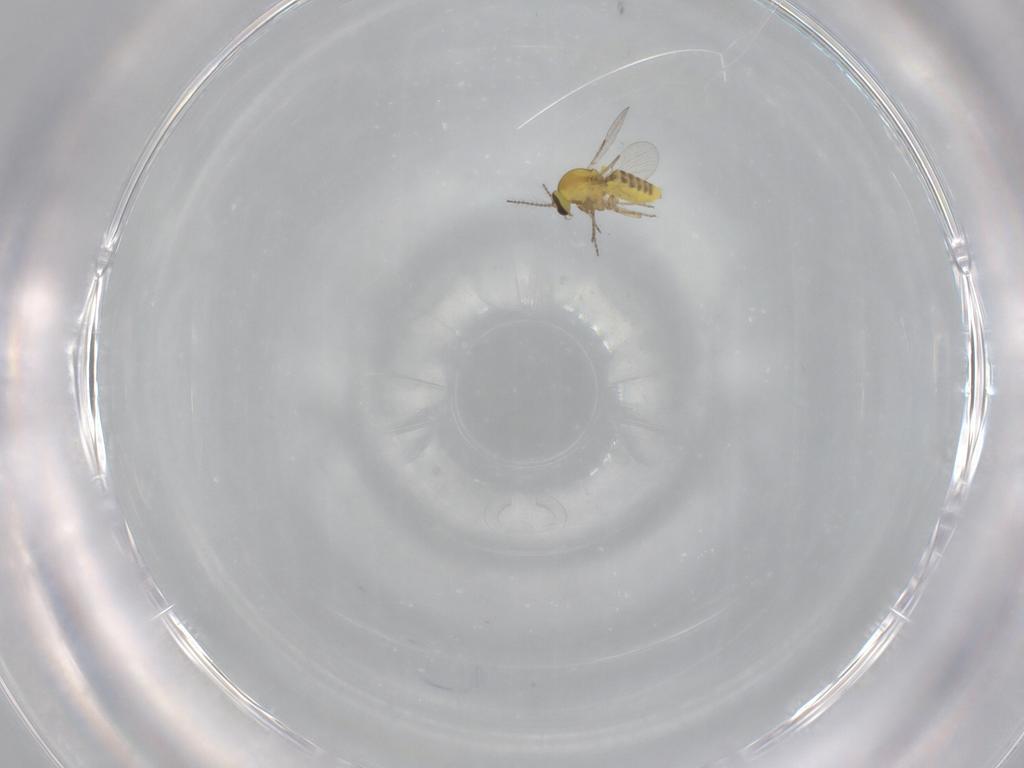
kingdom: Animalia
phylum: Arthropoda
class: Insecta
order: Diptera
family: Ceratopogonidae
